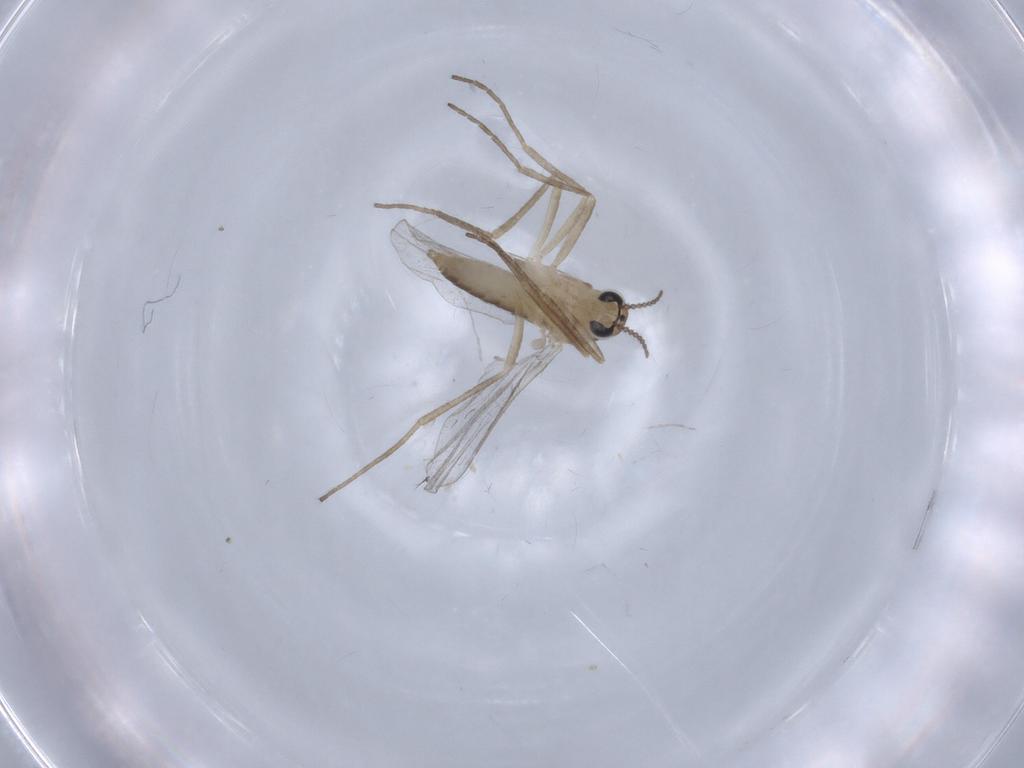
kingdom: Animalia
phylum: Arthropoda
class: Insecta
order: Diptera
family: Cecidomyiidae
